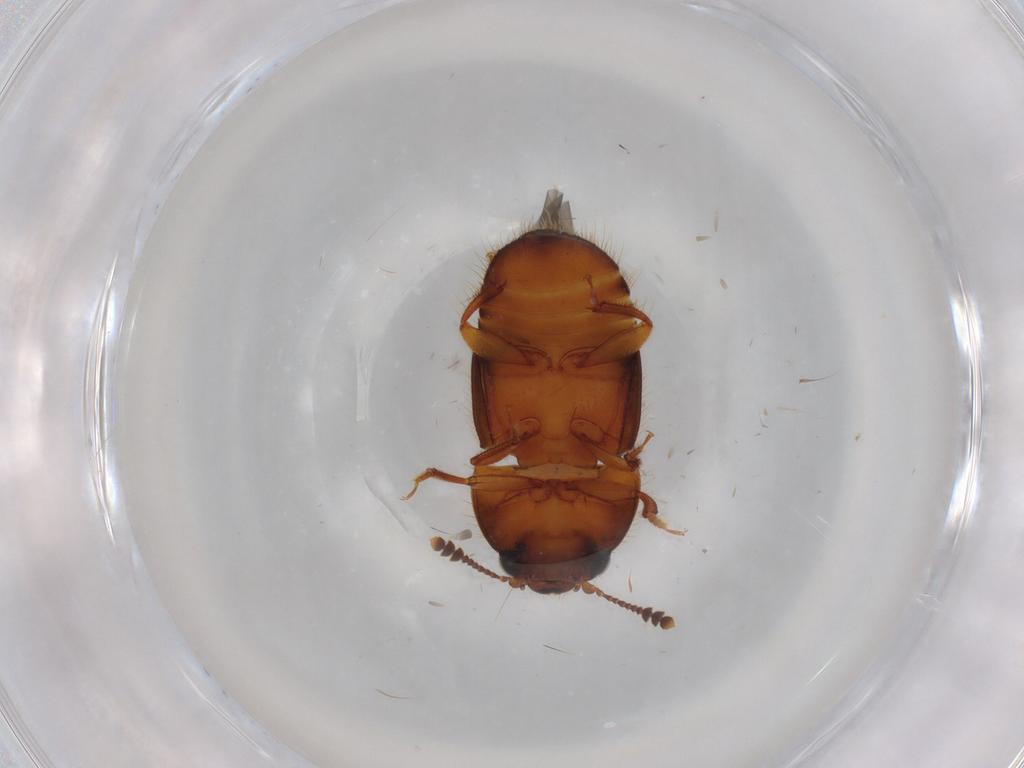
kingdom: Animalia
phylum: Arthropoda
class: Insecta
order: Coleoptera
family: Nitidulidae
